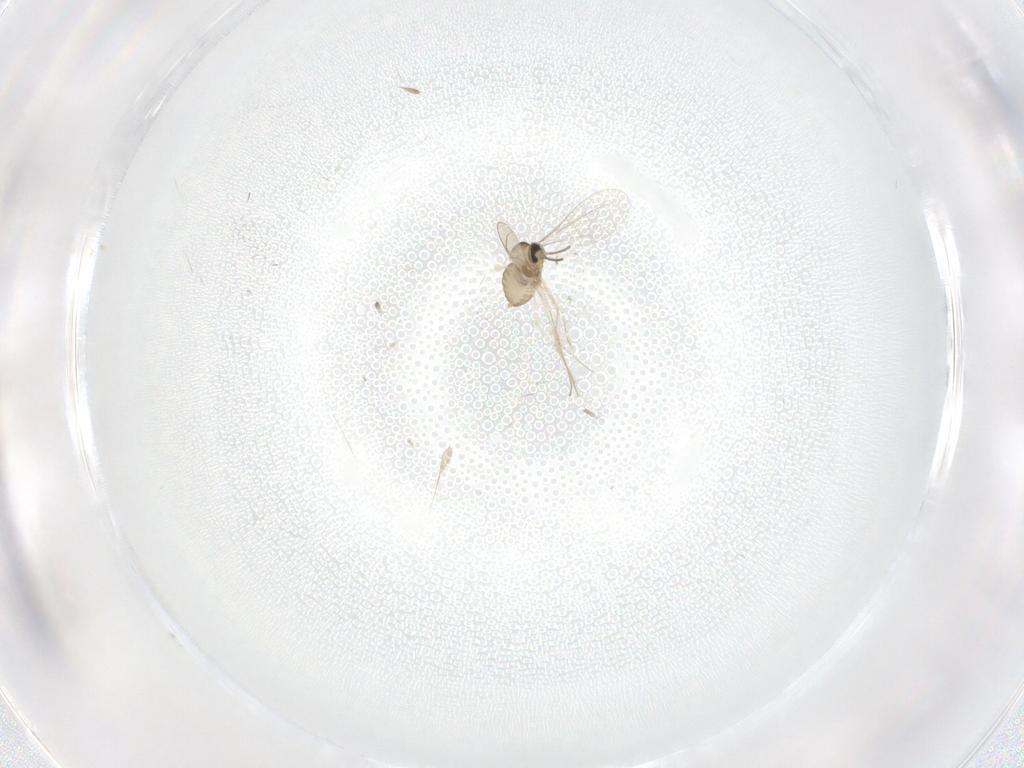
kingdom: Animalia
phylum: Arthropoda
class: Insecta
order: Diptera
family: Cecidomyiidae
